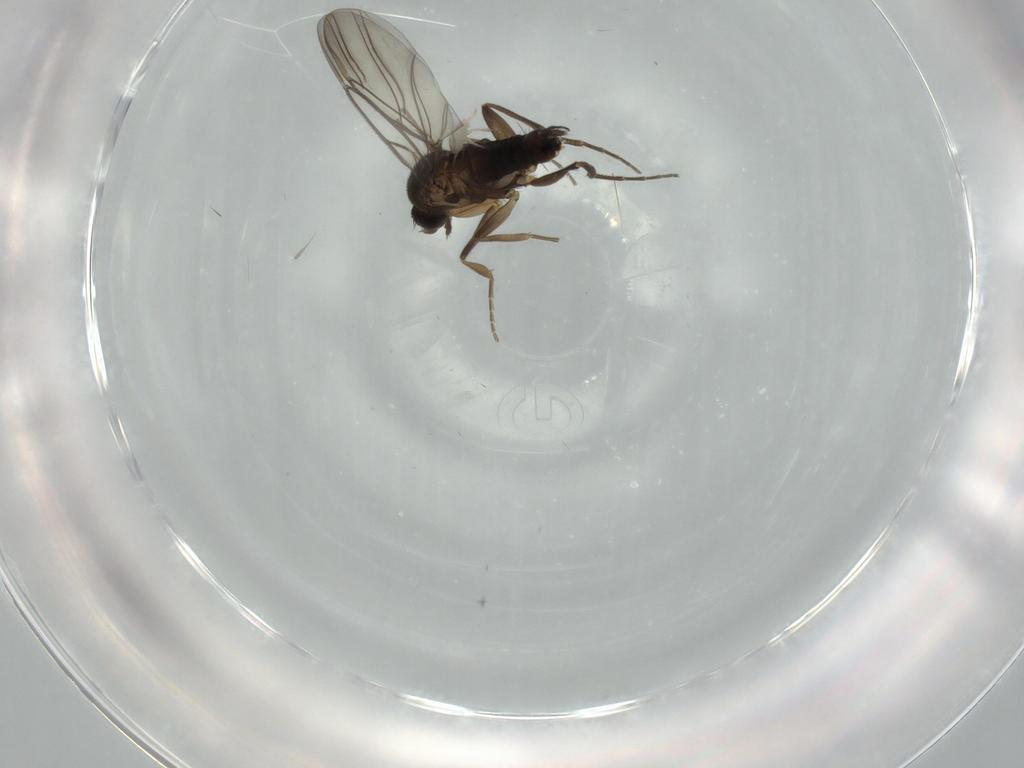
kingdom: Animalia
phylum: Arthropoda
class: Insecta
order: Diptera
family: Sciaridae
